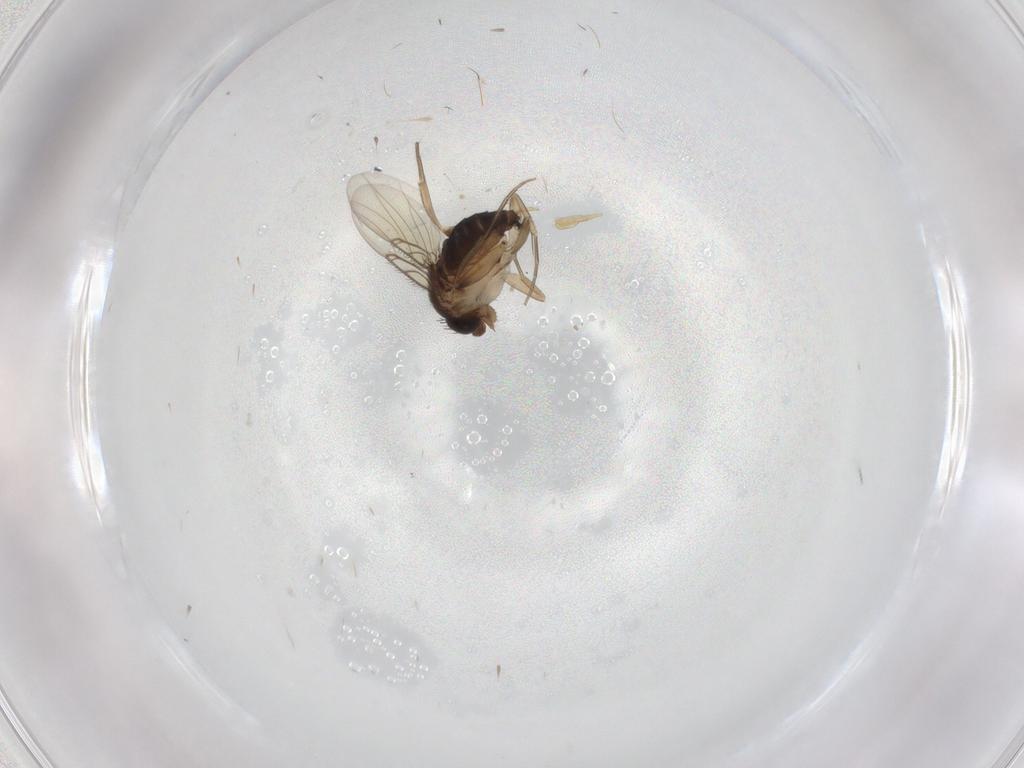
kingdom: Animalia
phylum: Arthropoda
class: Insecta
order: Diptera
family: Phoridae
